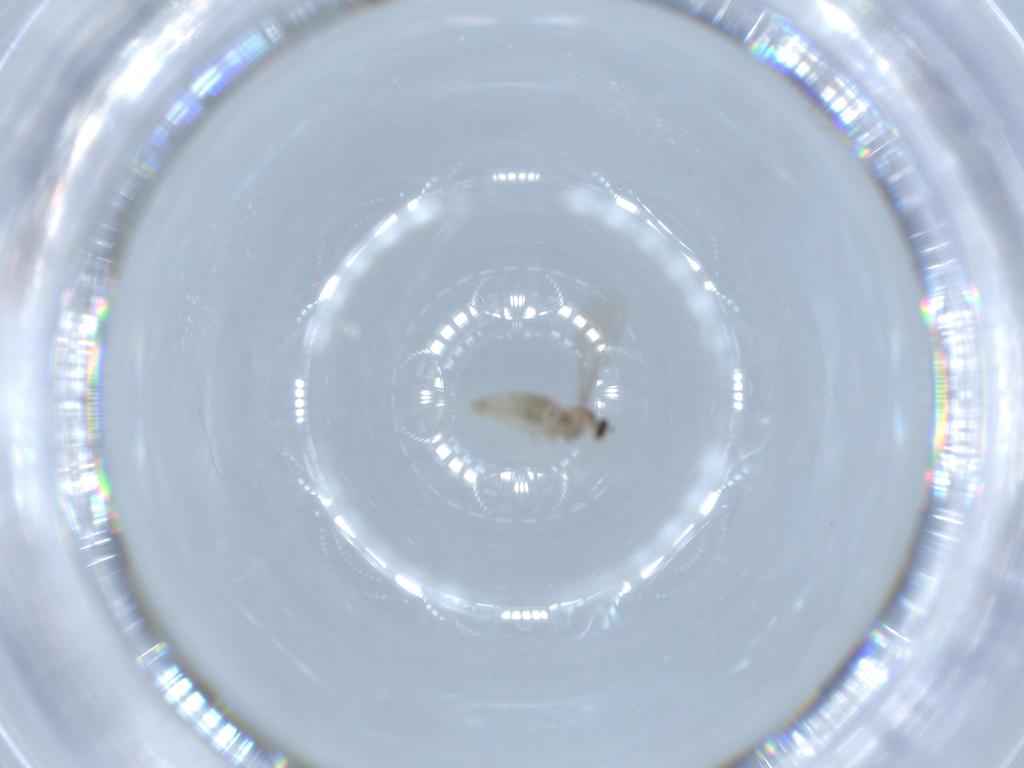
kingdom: Animalia
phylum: Arthropoda
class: Insecta
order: Diptera
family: Cecidomyiidae
